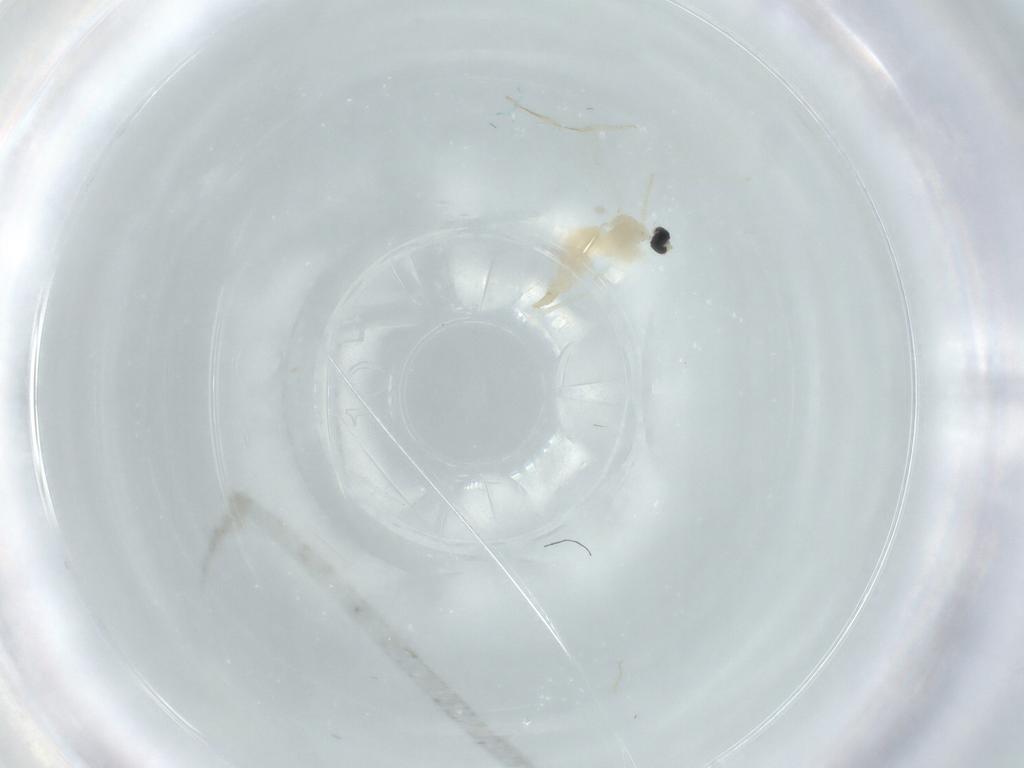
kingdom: Animalia
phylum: Arthropoda
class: Insecta
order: Diptera
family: Cecidomyiidae
